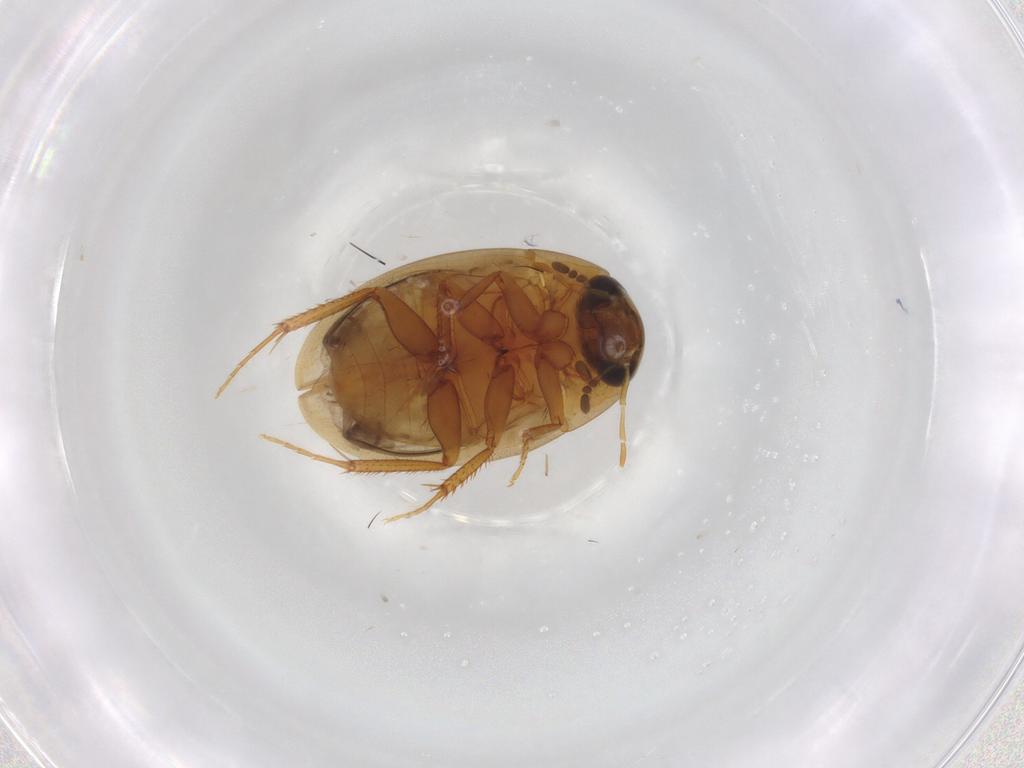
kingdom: Animalia
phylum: Arthropoda
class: Insecta
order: Coleoptera
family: Hydrophilidae
